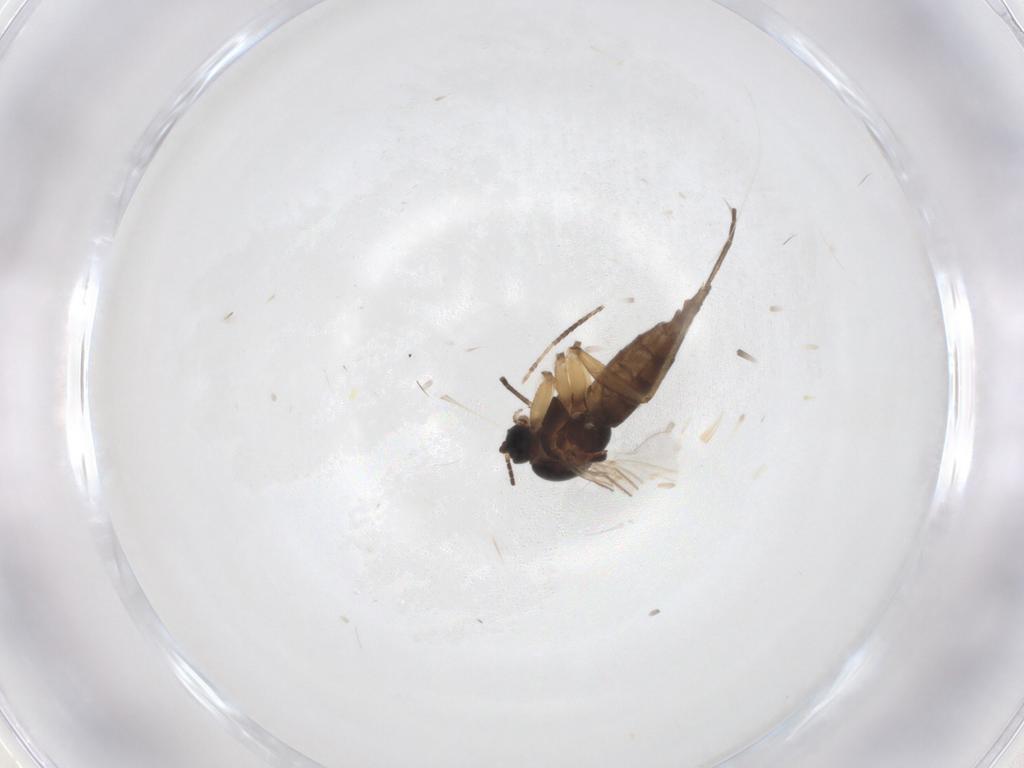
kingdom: Animalia
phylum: Arthropoda
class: Insecta
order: Diptera
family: Sciaridae
